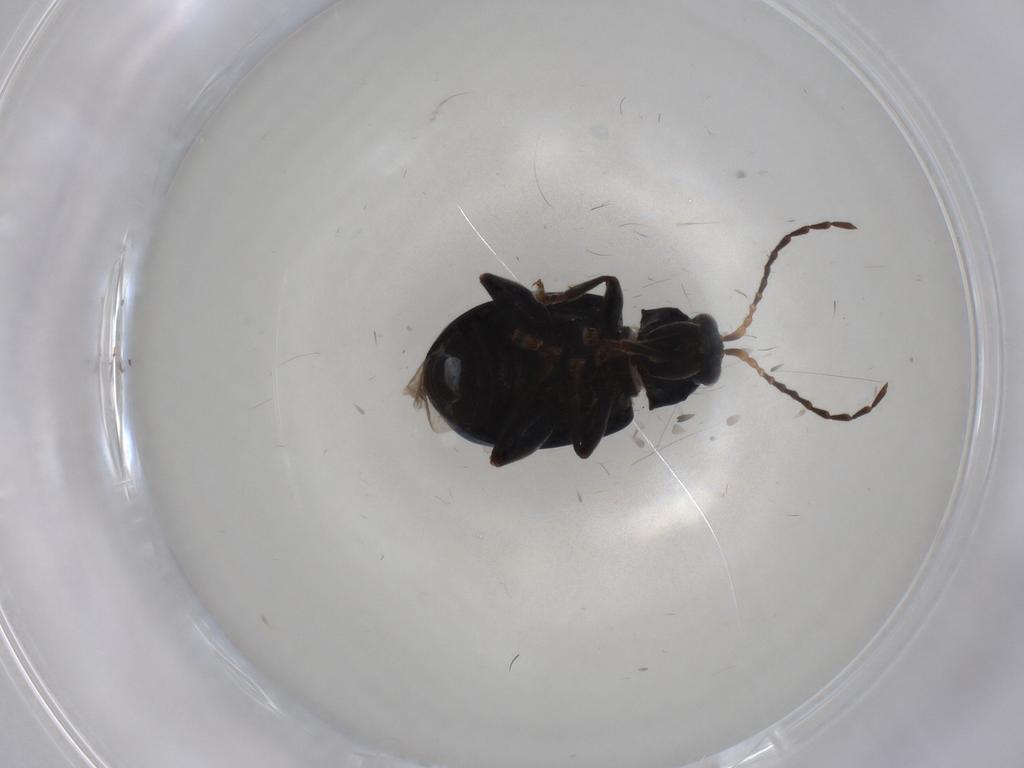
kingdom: Animalia
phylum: Arthropoda
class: Insecta
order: Coleoptera
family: Chrysomelidae
